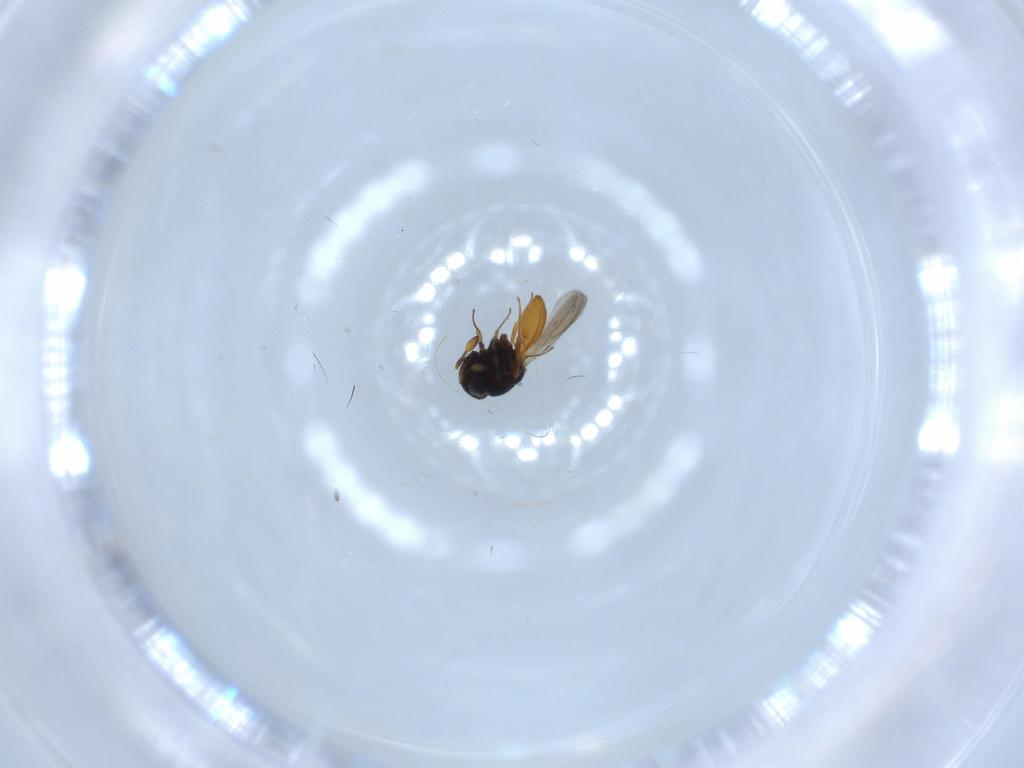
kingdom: Animalia
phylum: Arthropoda
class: Insecta
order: Hymenoptera
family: Scelionidae
